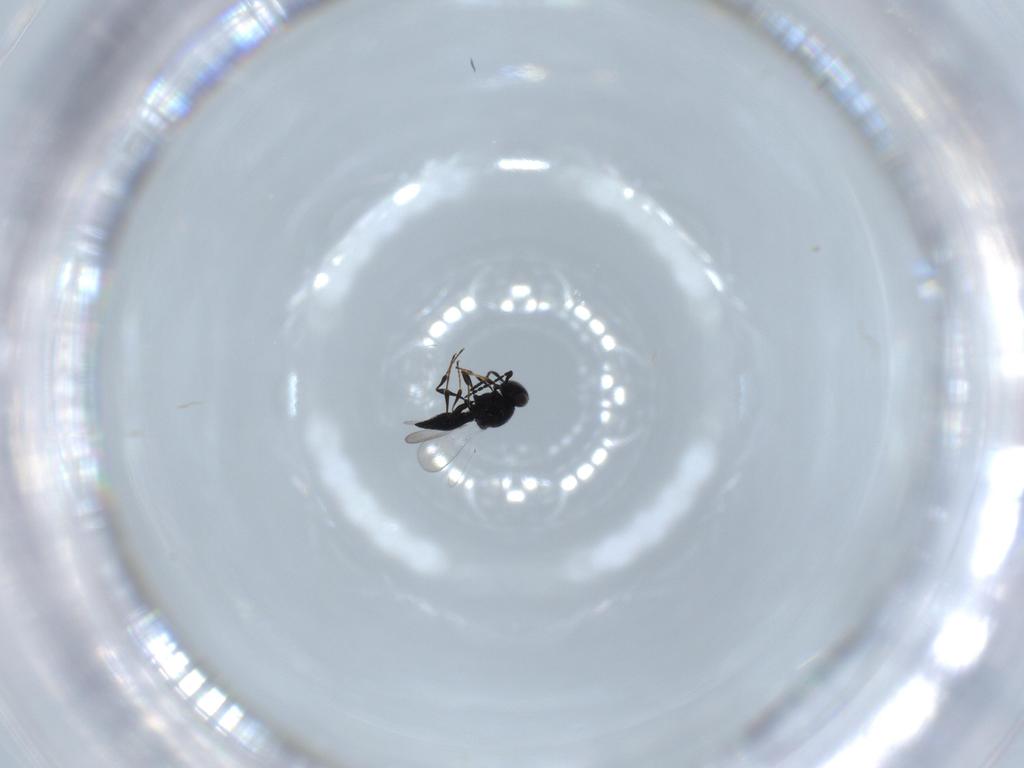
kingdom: Animalia
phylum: Arthropoda
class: Insecta
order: Diptera
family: Mythicomyiidae
